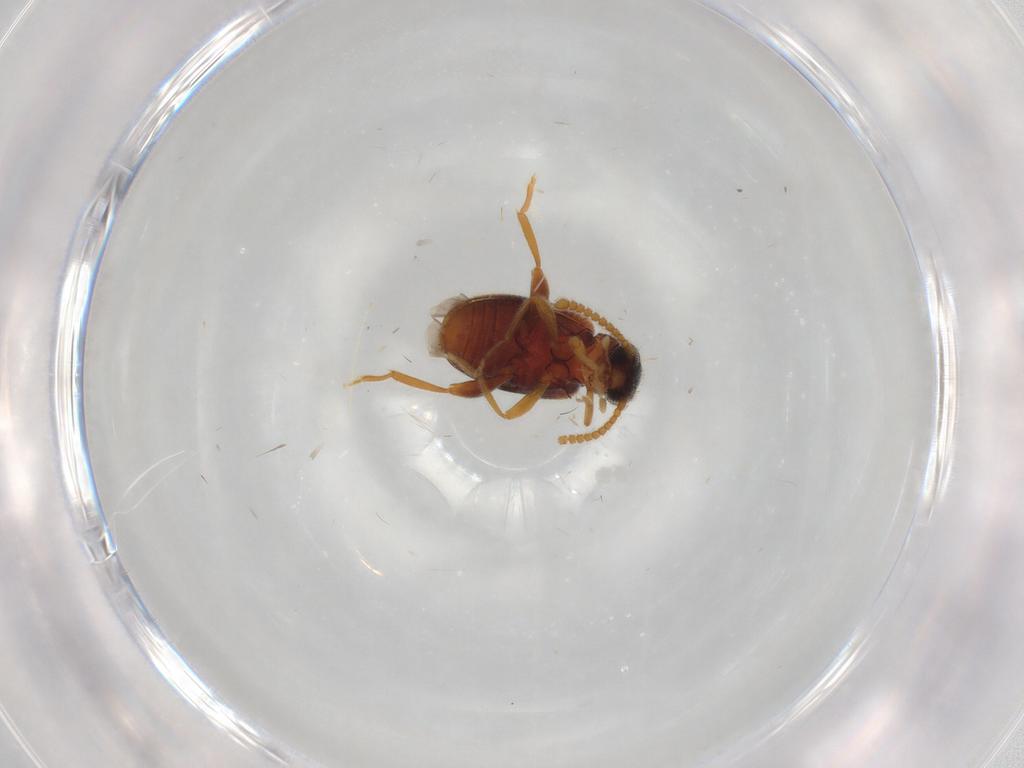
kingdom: Animalia
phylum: Arthropoda
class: Insecta
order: Coleoptera
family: Aderidae
